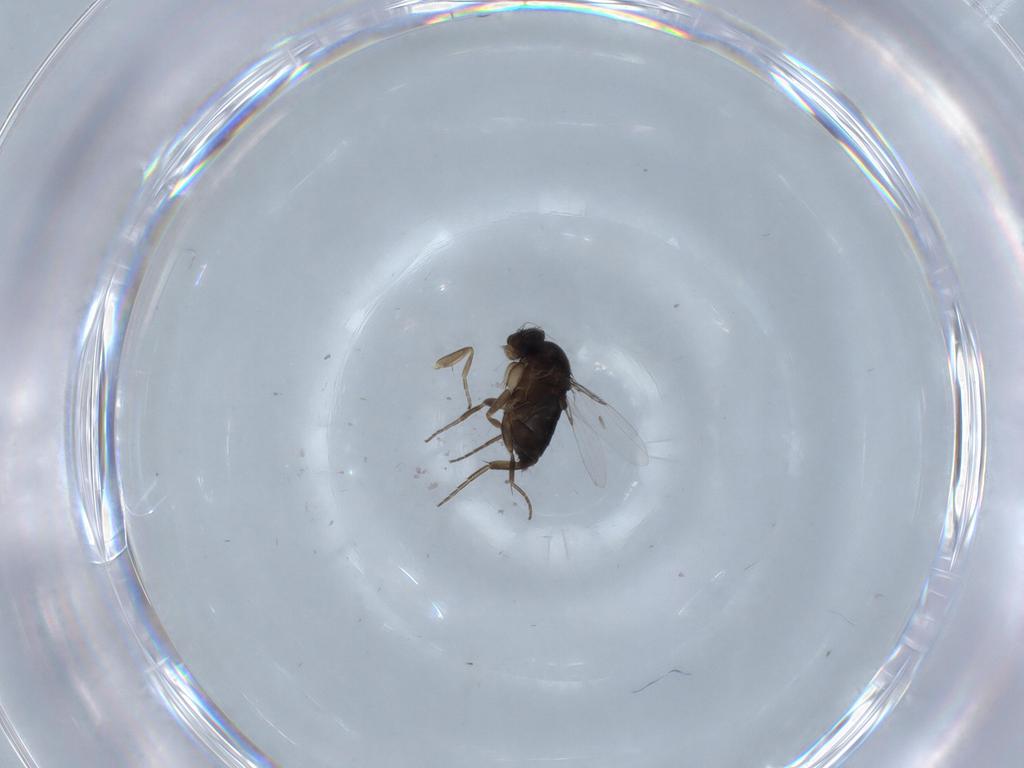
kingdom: Animalia
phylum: Arthropoda
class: Insecta
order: Diptera
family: Phoridae
